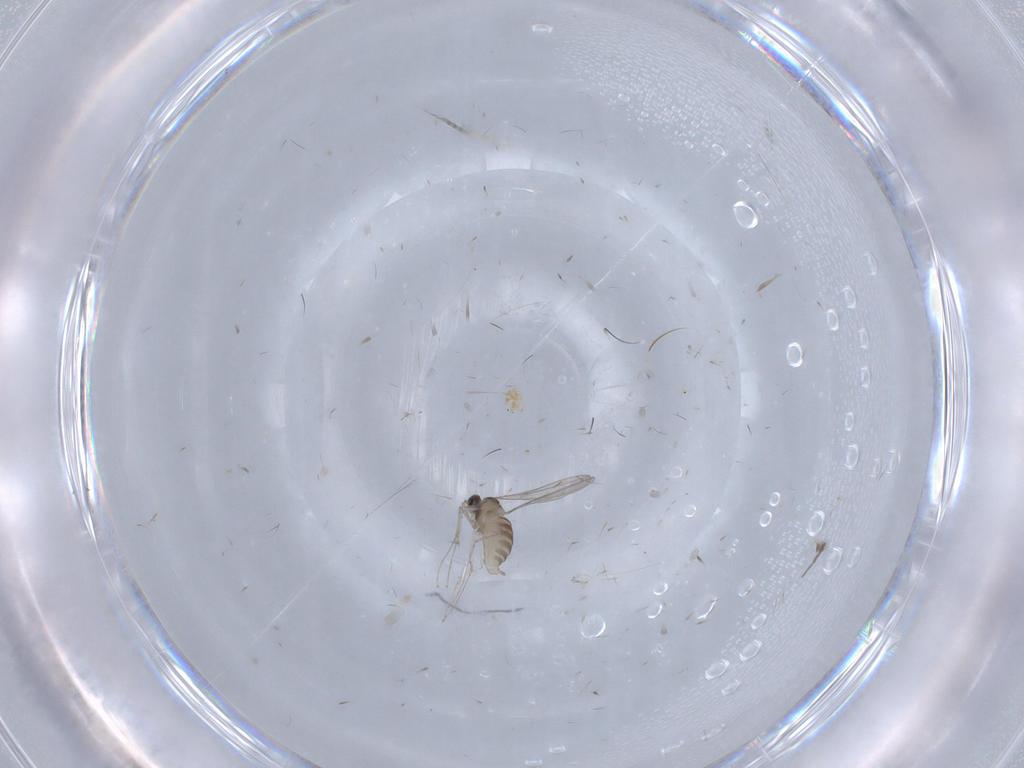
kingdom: Animalia
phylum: Arthropoda
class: Insecta
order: Diptera
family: Cecidomyiidae
